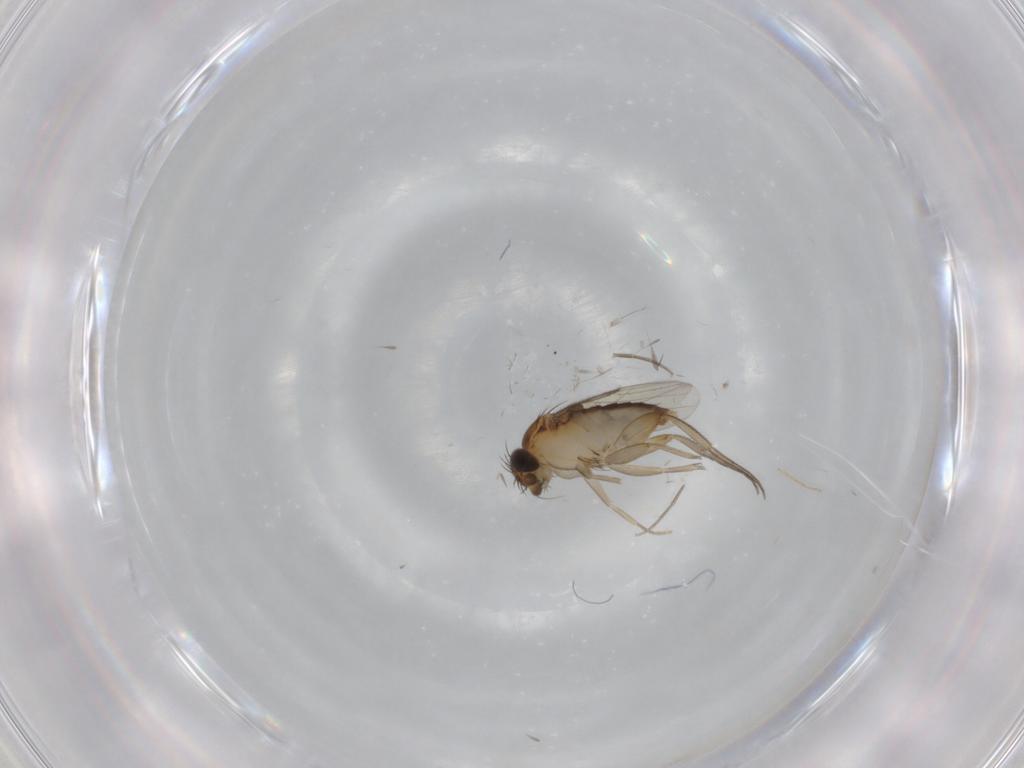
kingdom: Animalia
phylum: Arthropoda
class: Insecta
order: Diptera
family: Phoridae
